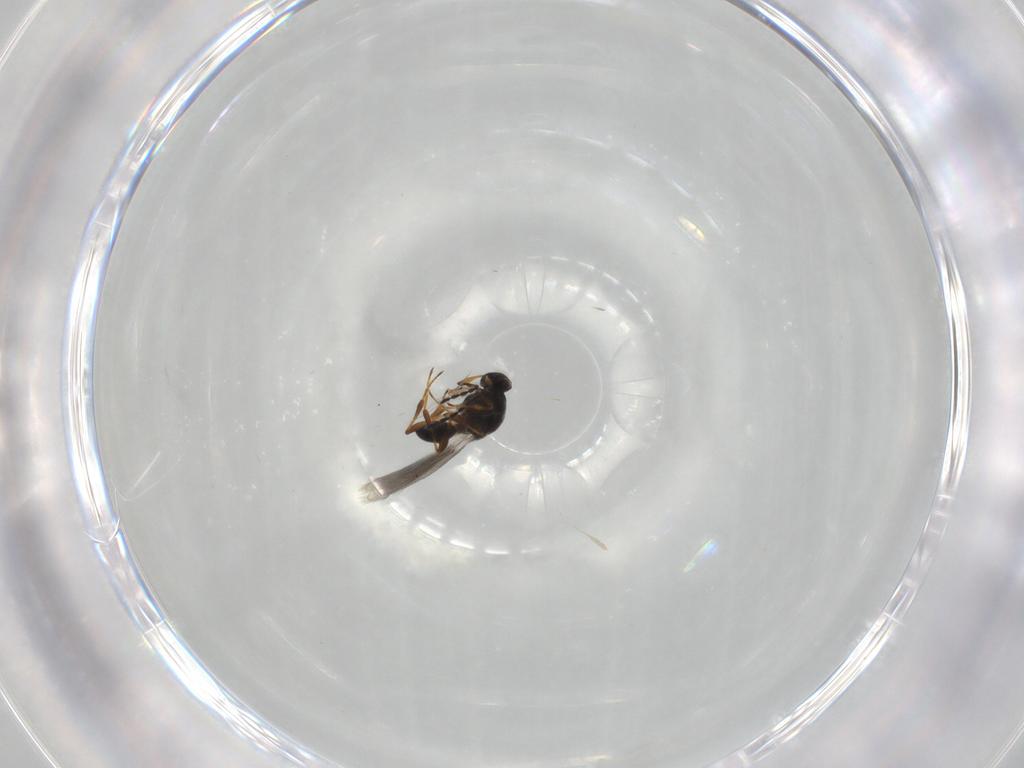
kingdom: Animalia
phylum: Arthropoda
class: Insecta
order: Hymenoptera
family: Platygastridae
